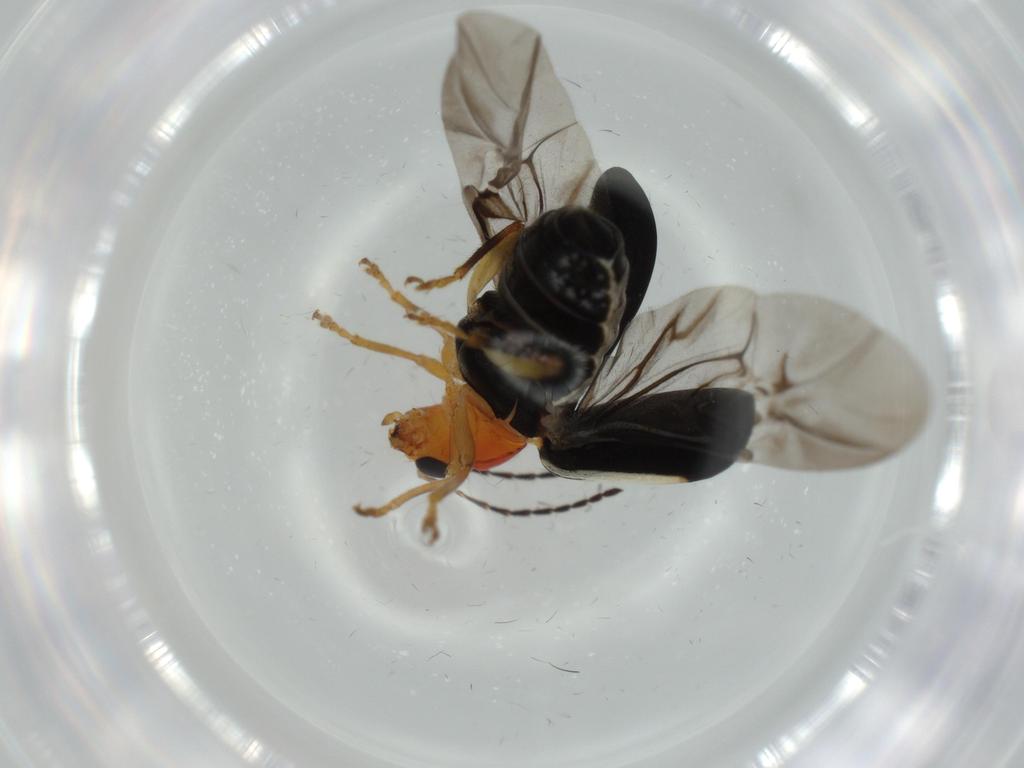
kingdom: Animalia
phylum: Arthropoda
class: Insecta
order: Coleoptera
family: Chrysomelidae
